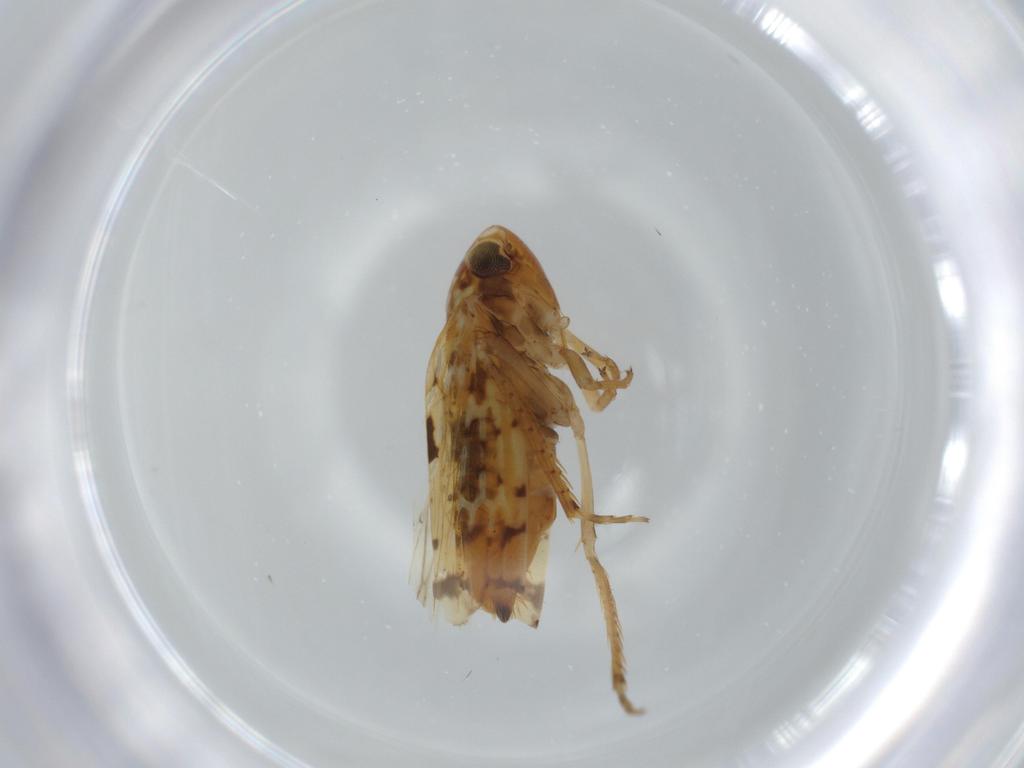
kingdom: Animalia
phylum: Arthropoda
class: Insecta
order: Hemiptera
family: Cicadellidae
